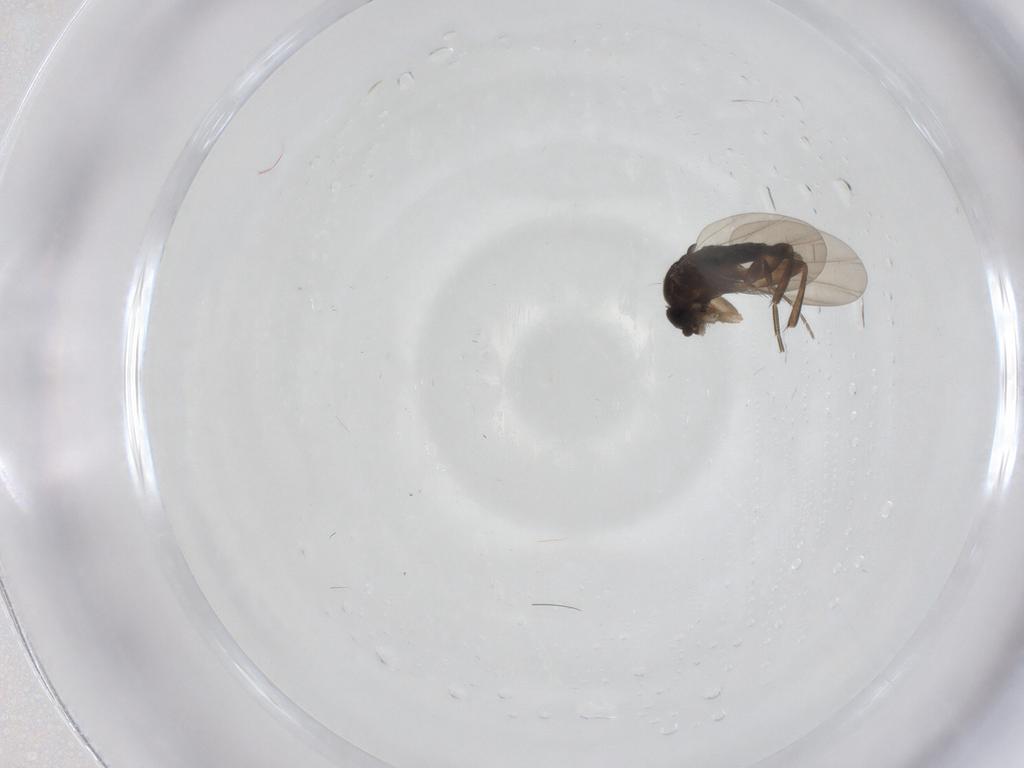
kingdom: Animalia
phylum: Arthropoda
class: Insecta
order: Diptera
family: Phoridae
